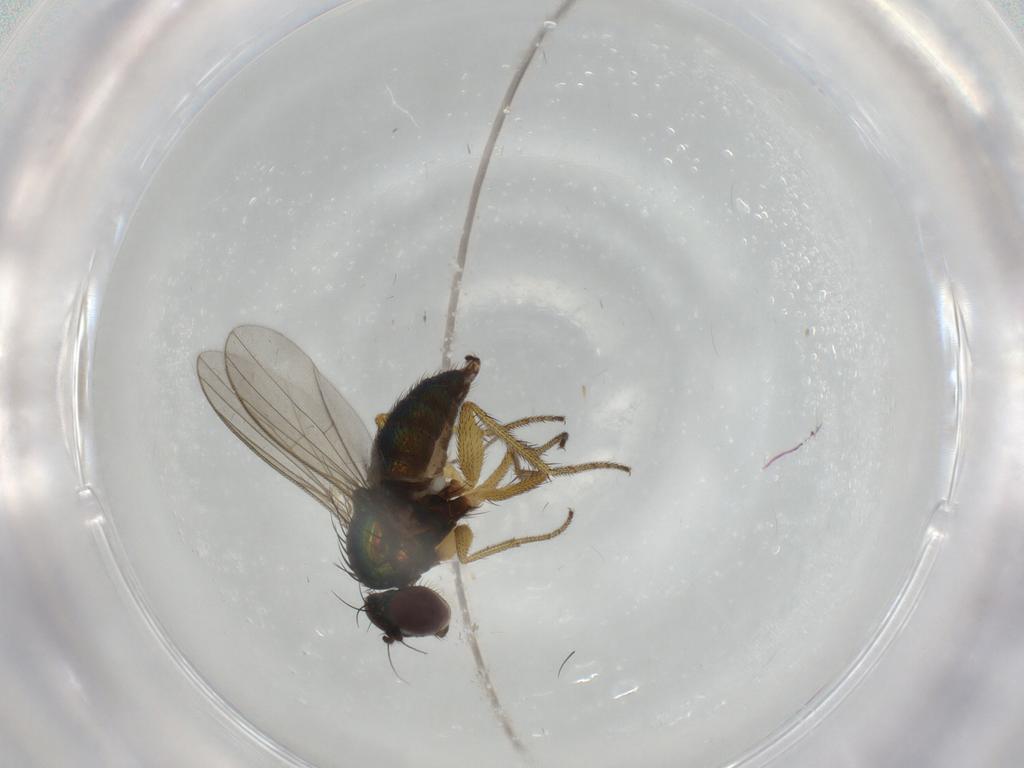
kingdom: Animalia
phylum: Arthropoda
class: Insecta
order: Diptera
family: Dolichopodidae
